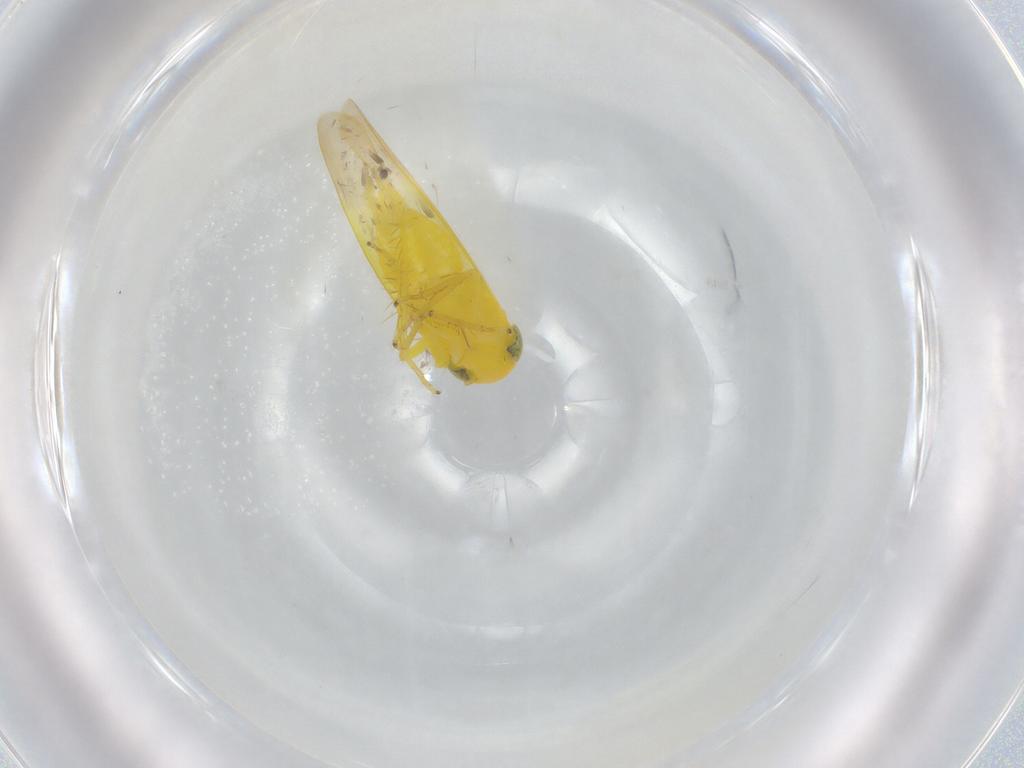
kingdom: Animalia
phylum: Arthropoda
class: Insecta
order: Hemiptera
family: Cicadellidae
